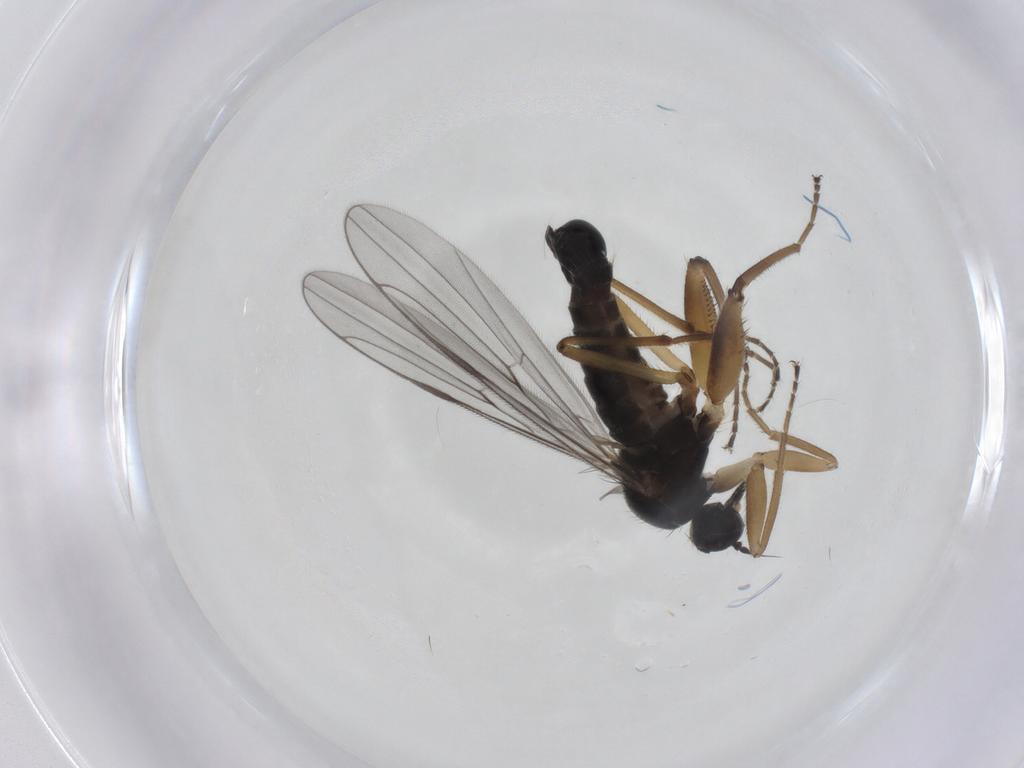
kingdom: Animalia
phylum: Arthropoda
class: Insecta
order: Diptera
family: Hybotidae
